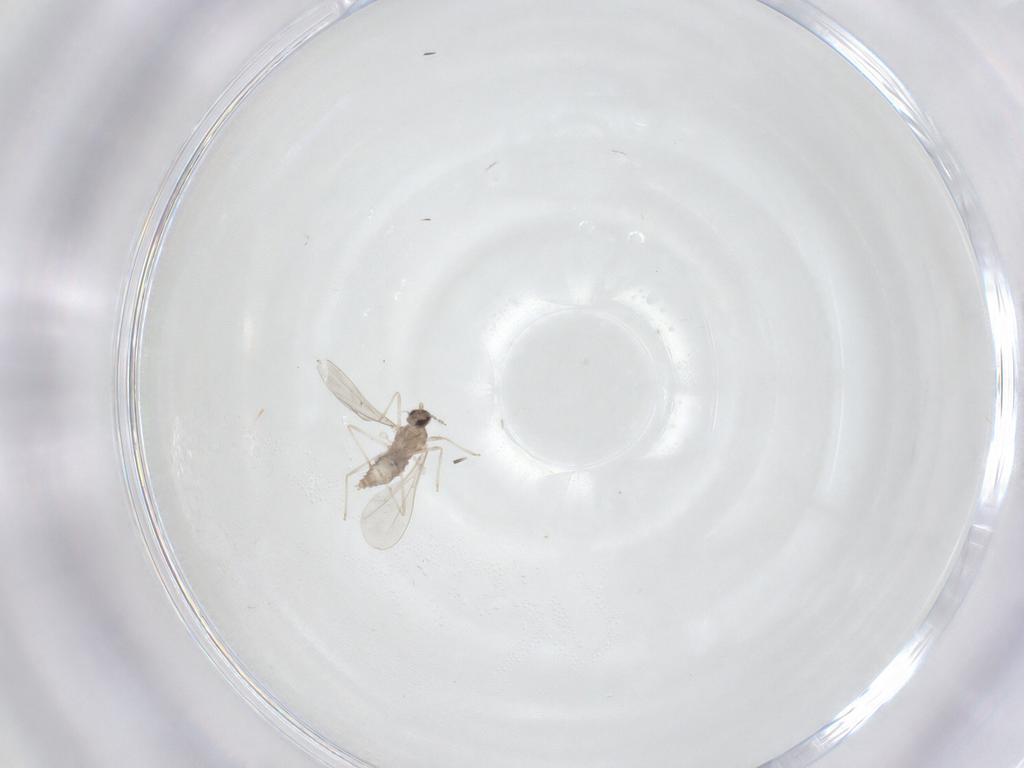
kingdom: Animalia
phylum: Arthropoda
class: Insecta
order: Diptera
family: Cecidomyiidae
